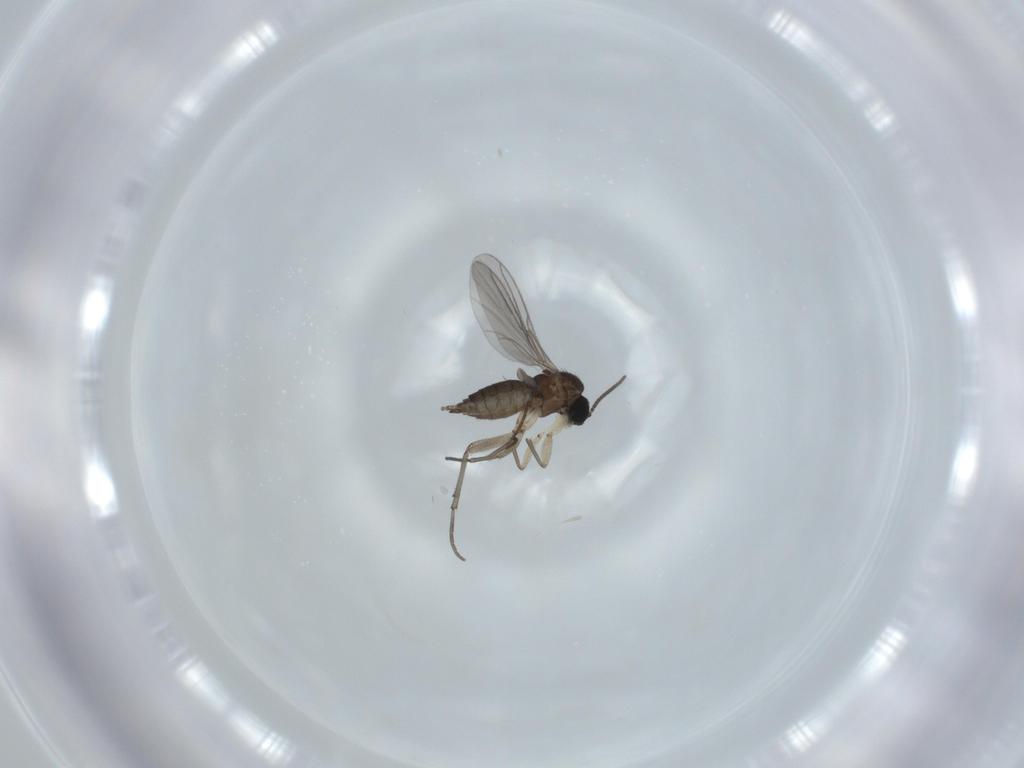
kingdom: Animalia
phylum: Arthropoda
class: Insecta
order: Diptera
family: Sciaridae
